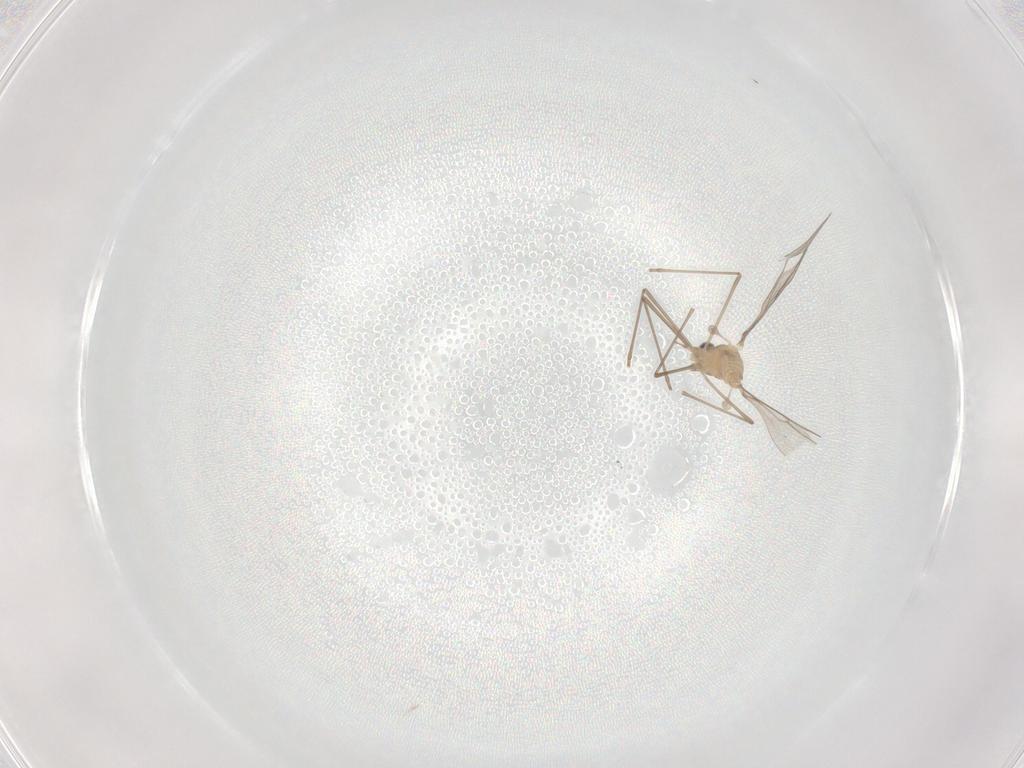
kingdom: Animalia
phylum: Arthropoda
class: Insecta
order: Diptera
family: Cecidomyiidae
